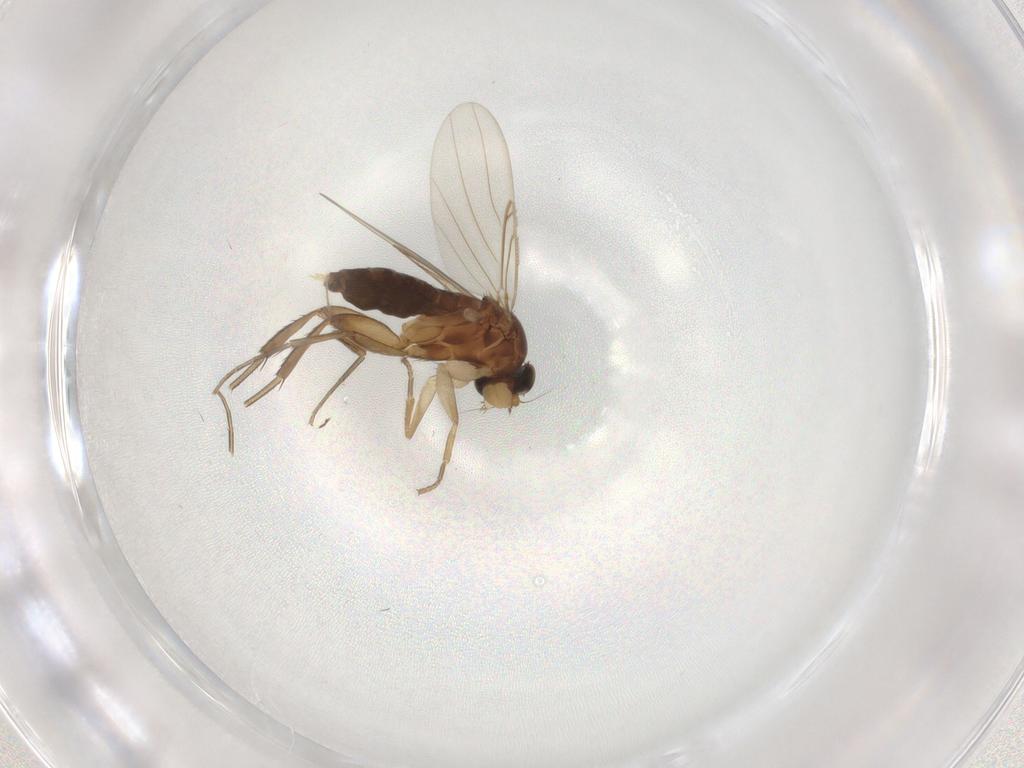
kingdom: Animalia
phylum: Arthropoda
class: Insecta
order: Diptera
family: Phoridae
